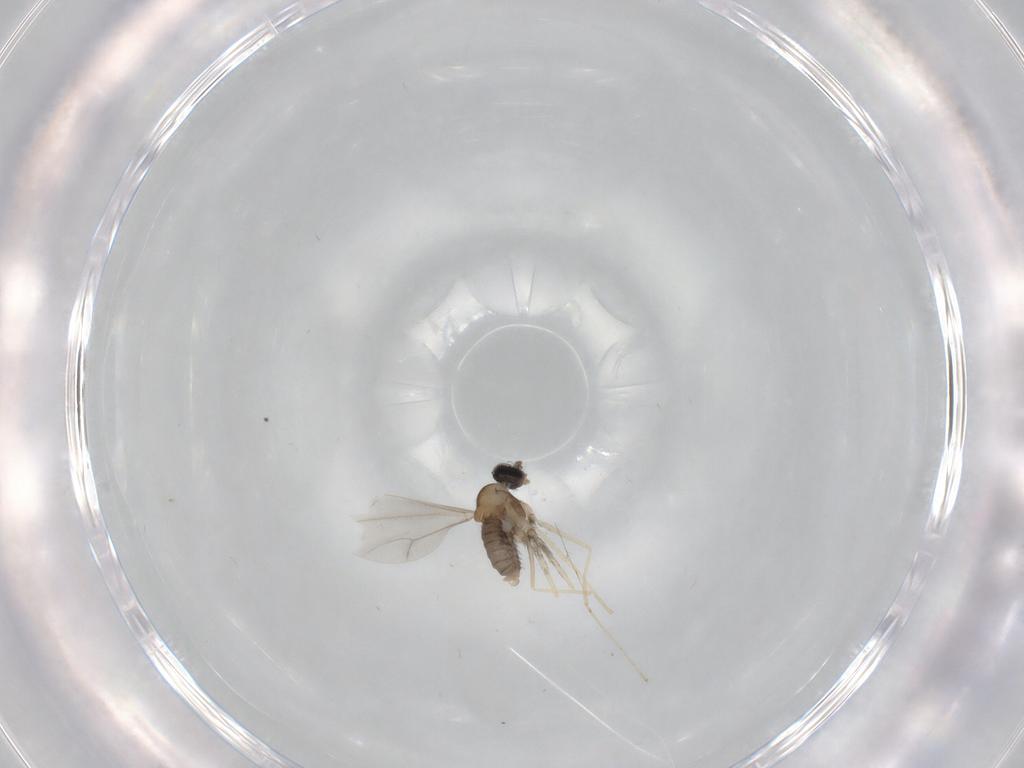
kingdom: Animalia
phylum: Arthropoda
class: Insecta
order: Diptera
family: Cecidomyiidae
